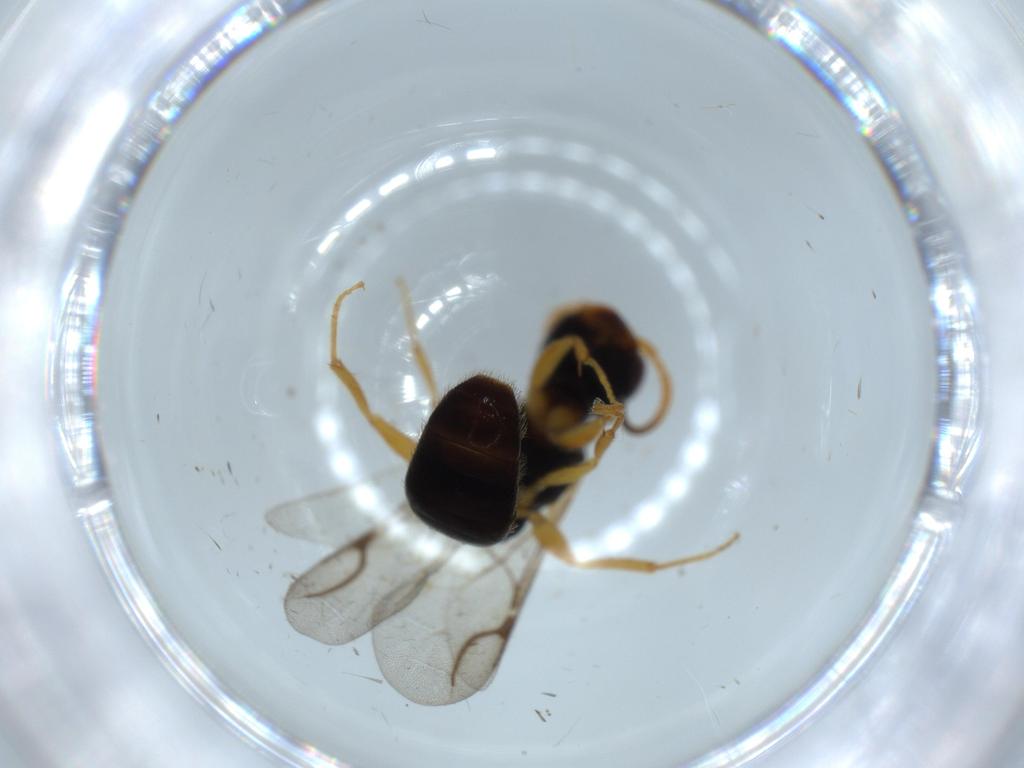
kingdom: Animalia
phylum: Arthropoda
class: Insecta
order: Hymenoptera
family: Bethylidae
